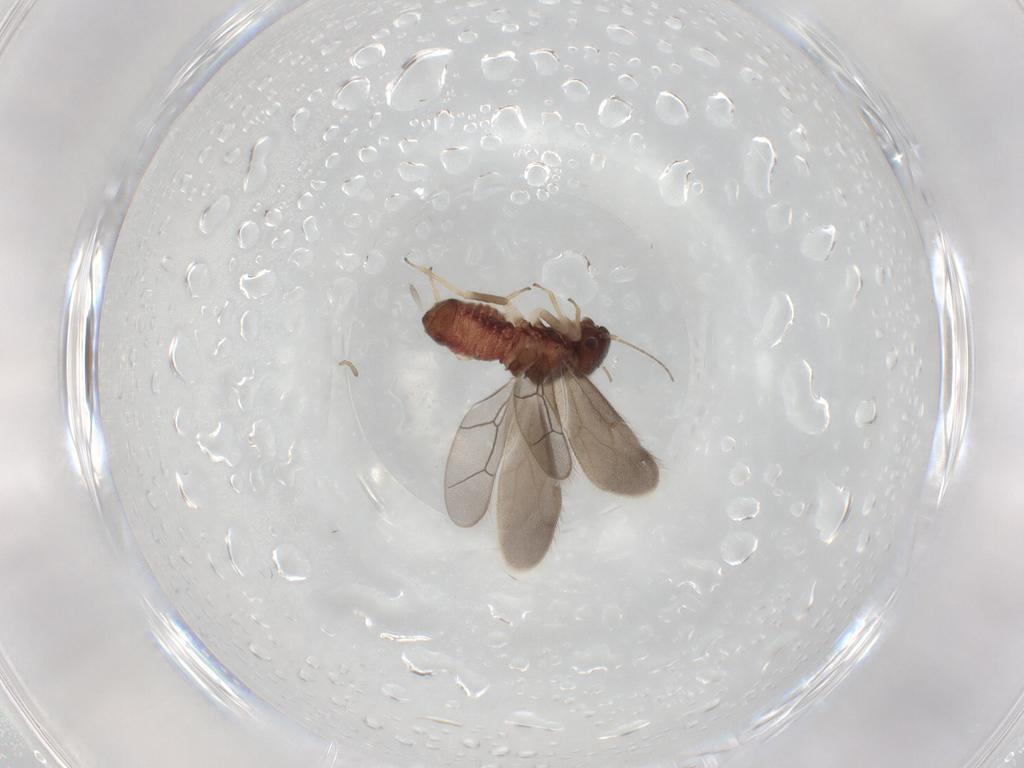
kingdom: Animalia
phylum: Arthropoda
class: Insecta
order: Psocodea
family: Archipsocidae
